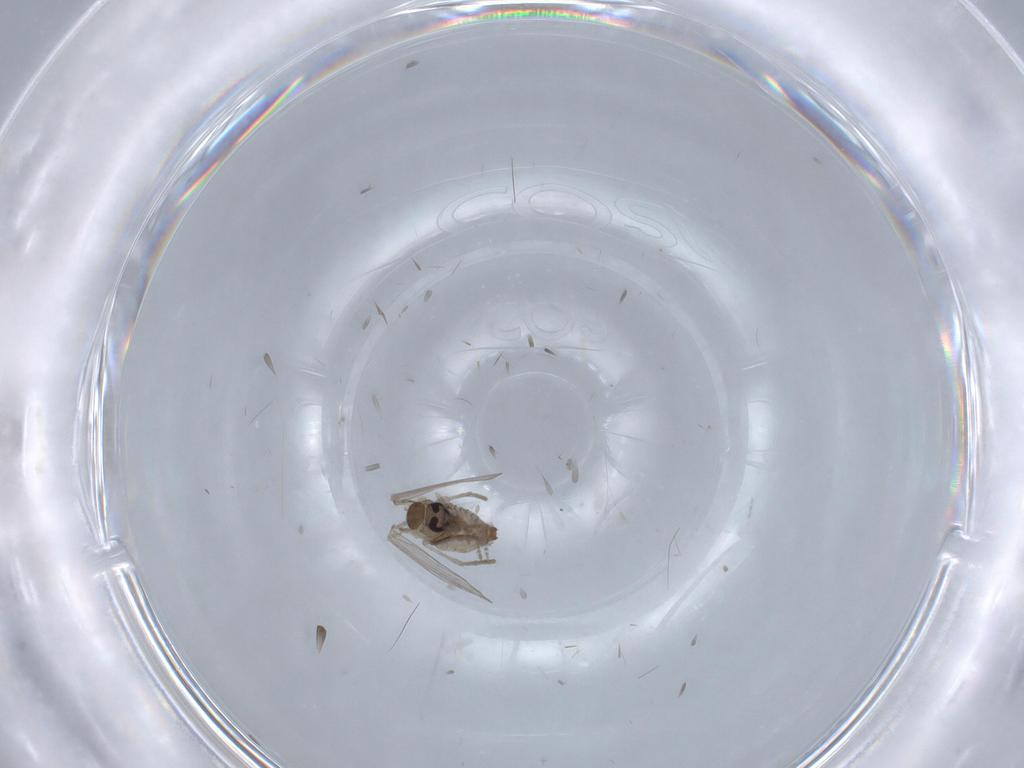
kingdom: Animalia
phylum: Arthropoda
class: Insecta
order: Diptera
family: Psychodidae
